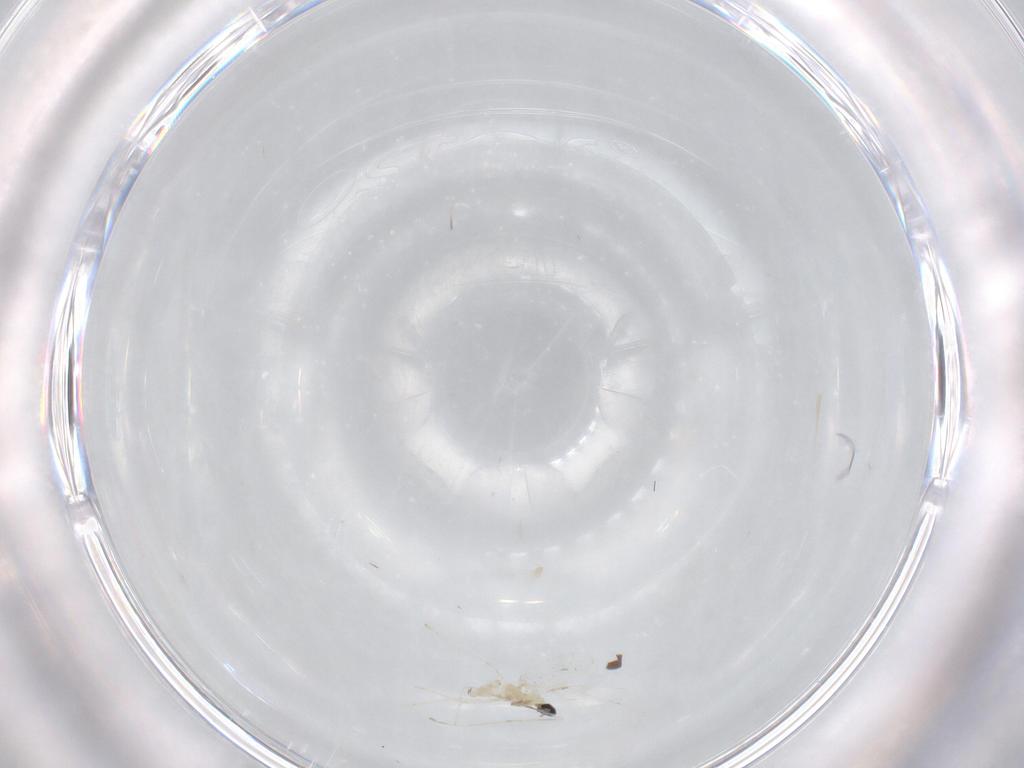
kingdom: Animalia
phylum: Arthropoda
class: Insecta
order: Diptera
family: Cecidomyiidae
